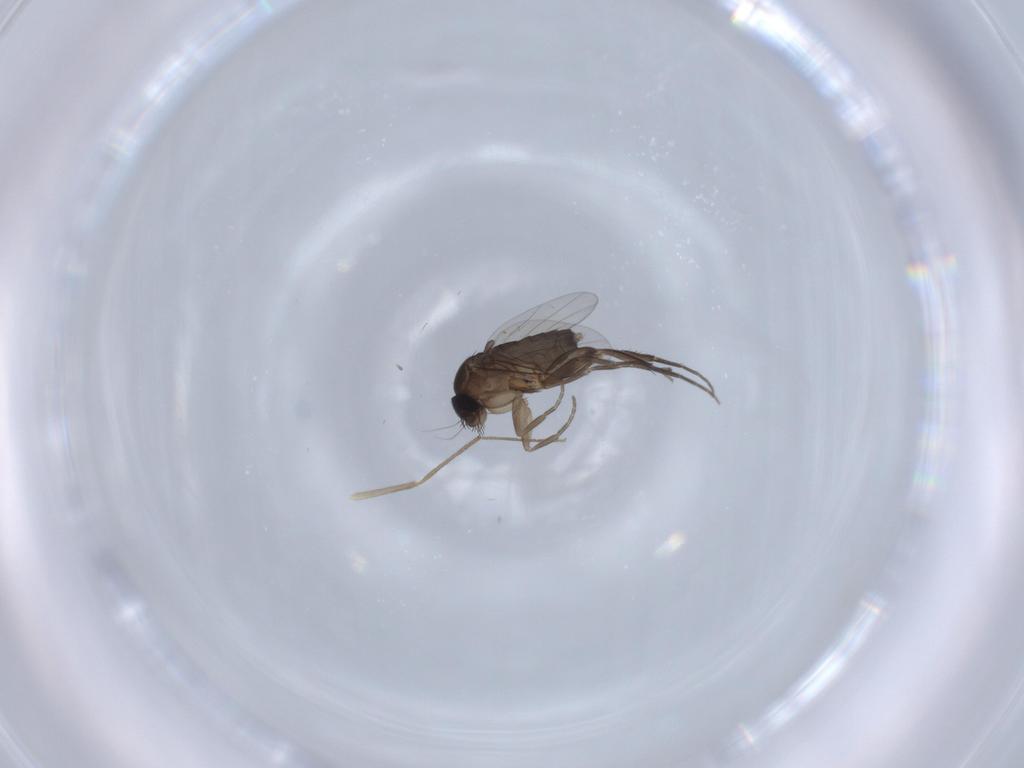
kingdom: Animalia
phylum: Arthropoda
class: Insecta
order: Diptera
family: Phoridae
